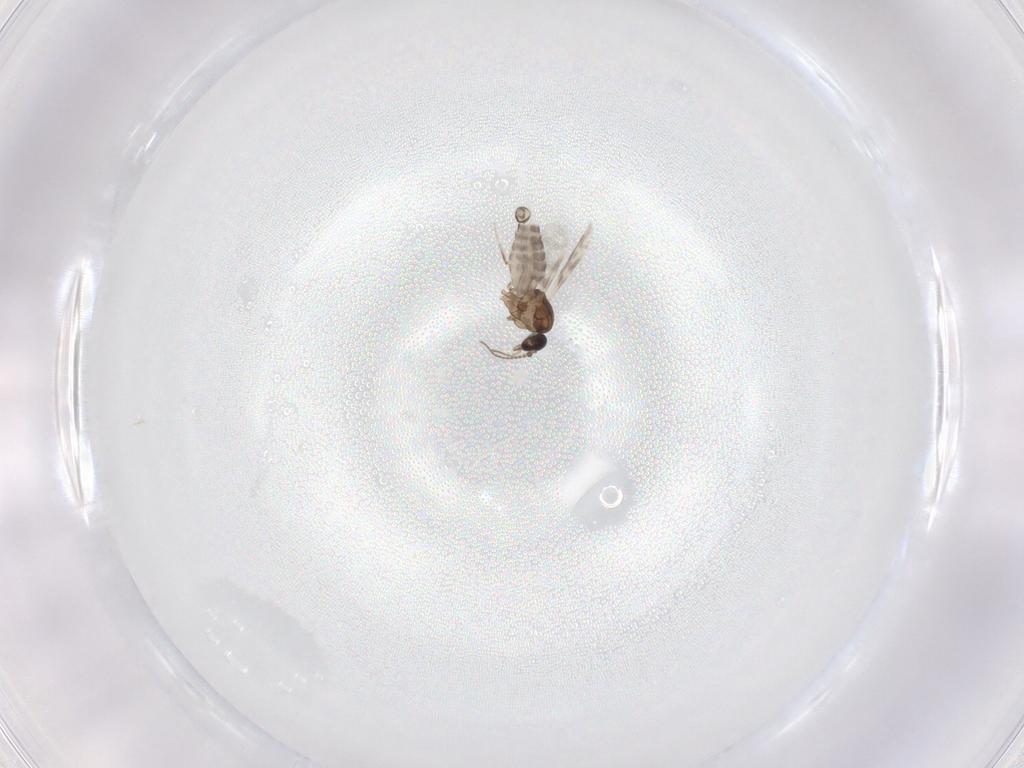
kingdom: Animalia
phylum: Arthropoda
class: Insecta
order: Diptera
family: Ceratopogonidae
